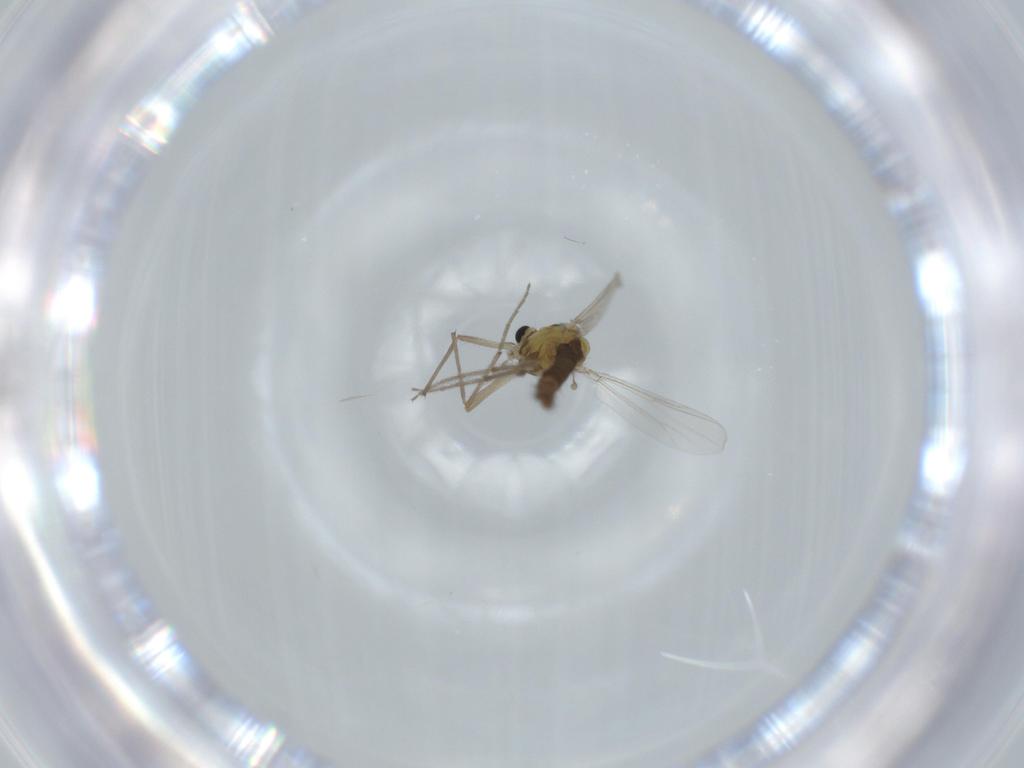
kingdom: Animalia
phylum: Arthropoda
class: Insecta
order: Diptera
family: Chironomidae
